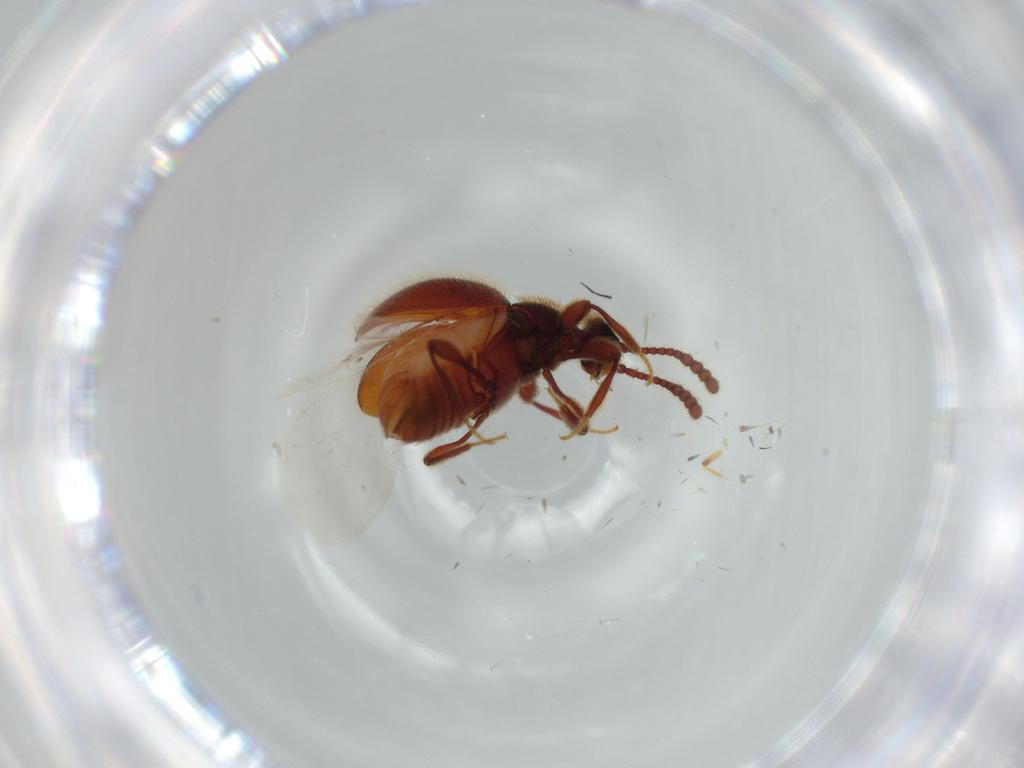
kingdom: Animalia
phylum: Arthropoda
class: Insecta
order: Coleoptera
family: Staphylinidae
